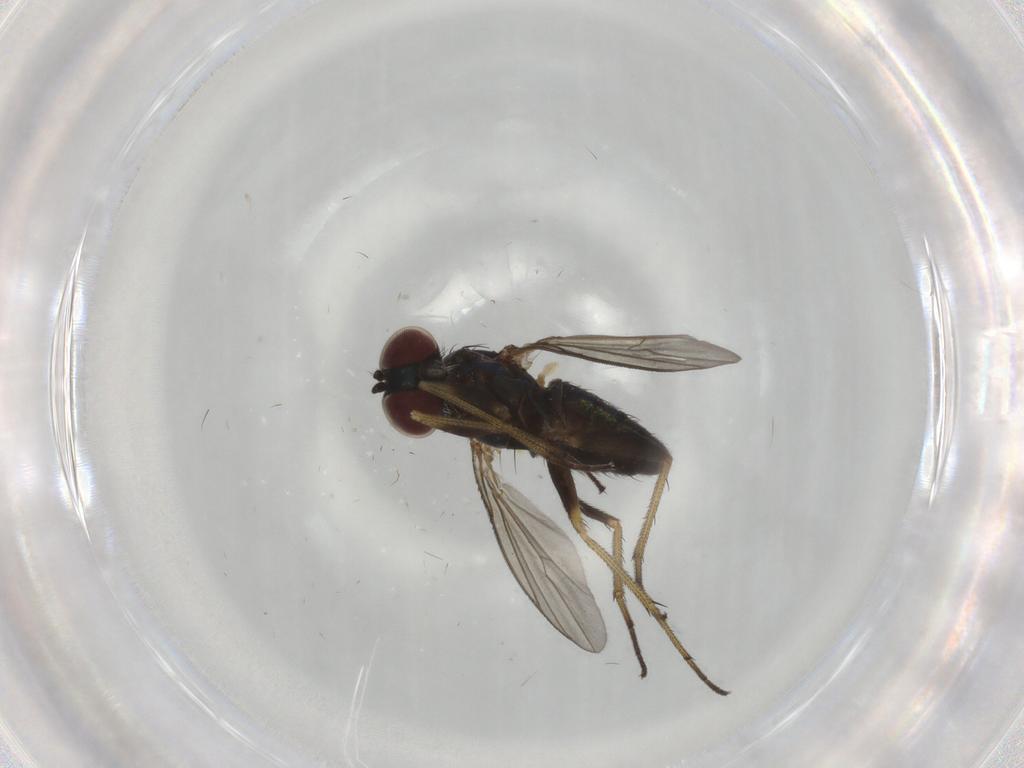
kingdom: Animalia
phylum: Arthropoda
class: Insecta
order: Diptera
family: Dolichopodidae
